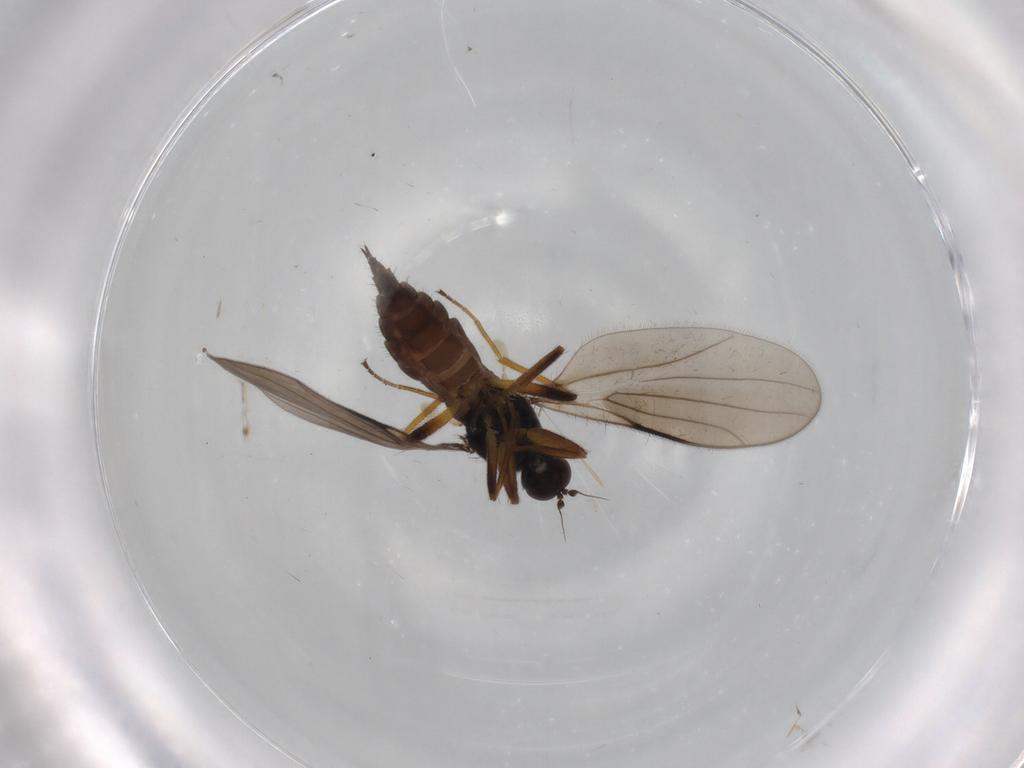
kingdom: Animalia
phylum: Arthropoda
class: Insecta
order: Diptera
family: Hybotidae
